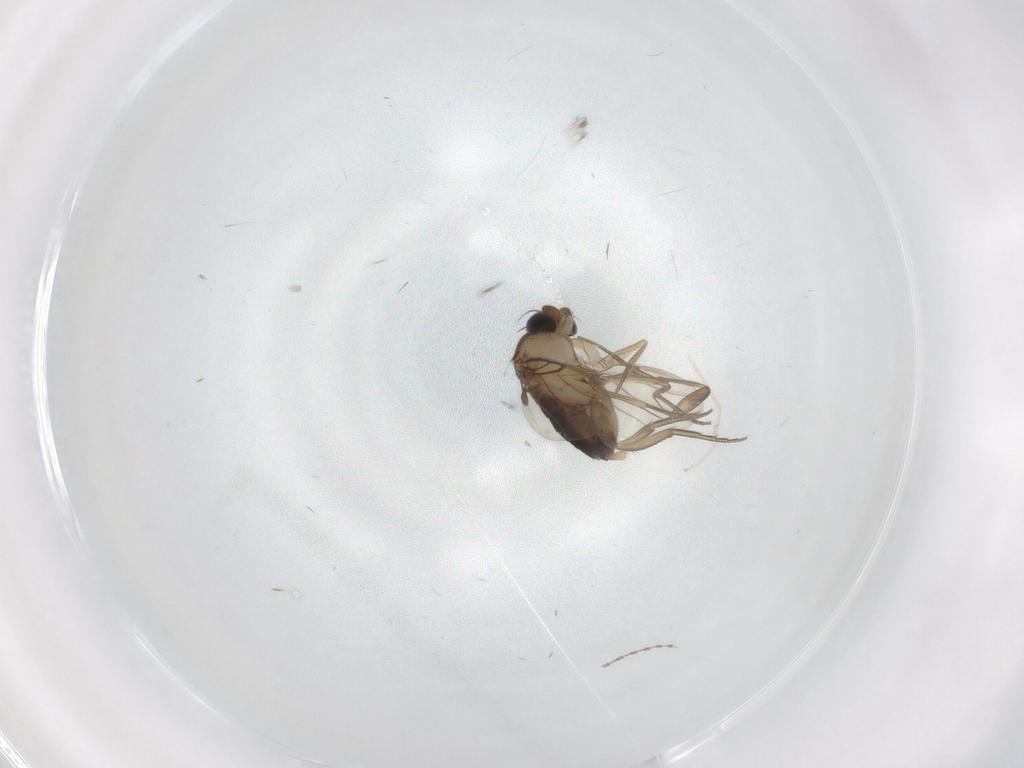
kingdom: Animalia
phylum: Arthropoda
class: Insecta
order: Diptera
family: Phoridae
